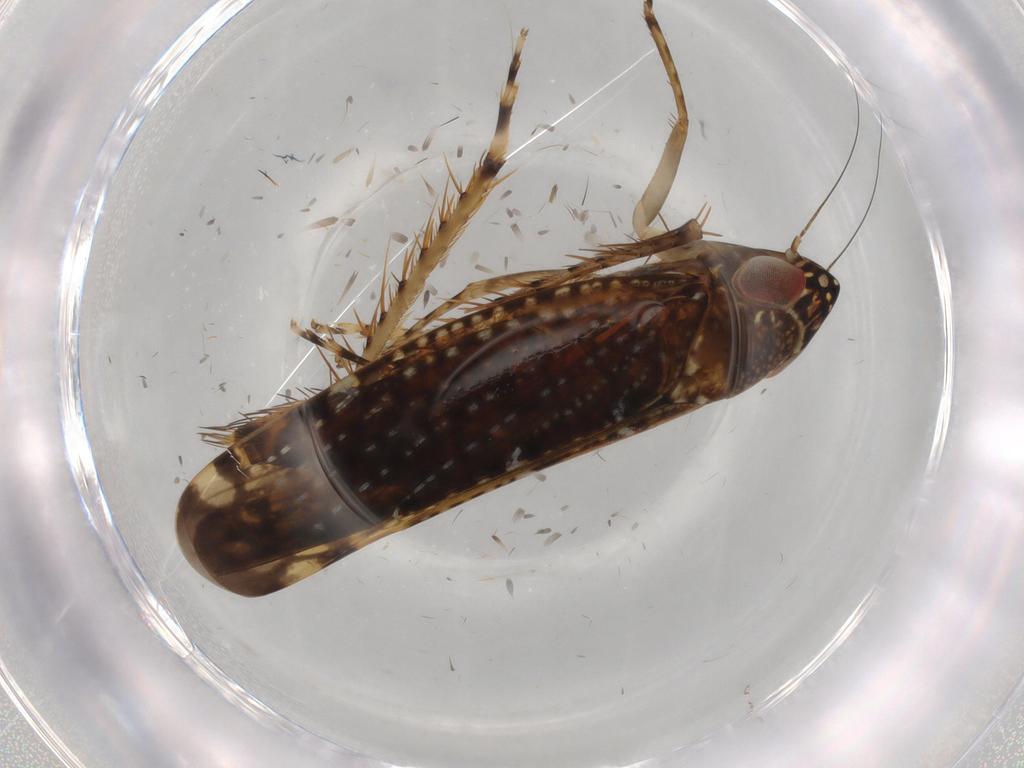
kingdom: Animalia
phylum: Arthropoda
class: Insecta
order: Hemiptera
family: Cicadellidae
